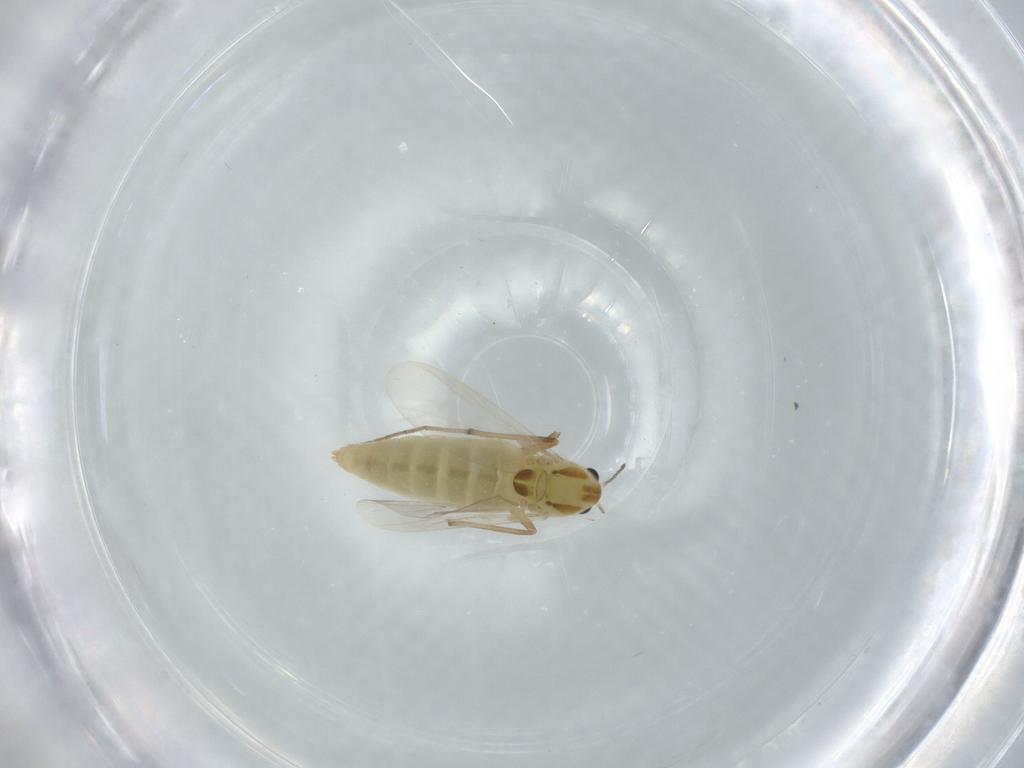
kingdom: Animalia
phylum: Arthropoda
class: Insecta
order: Diptera
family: Chironomidae
